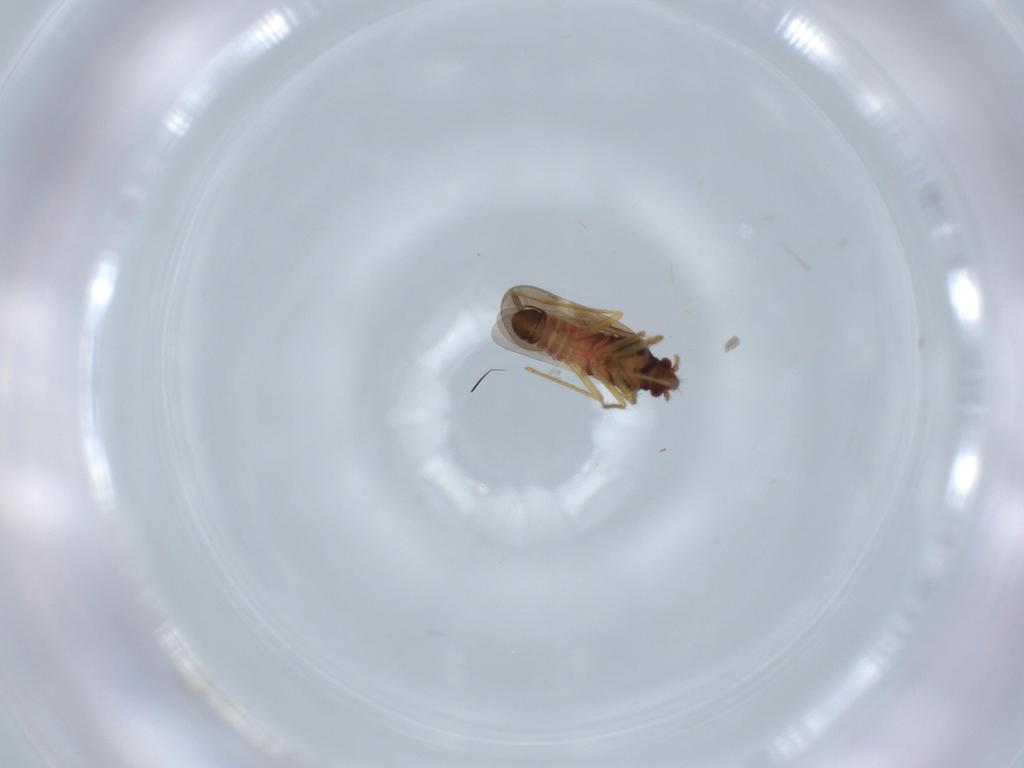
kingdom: Animalia
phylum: Arthropoda
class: Insecta
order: Hemiptera
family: Ceratocombidae
